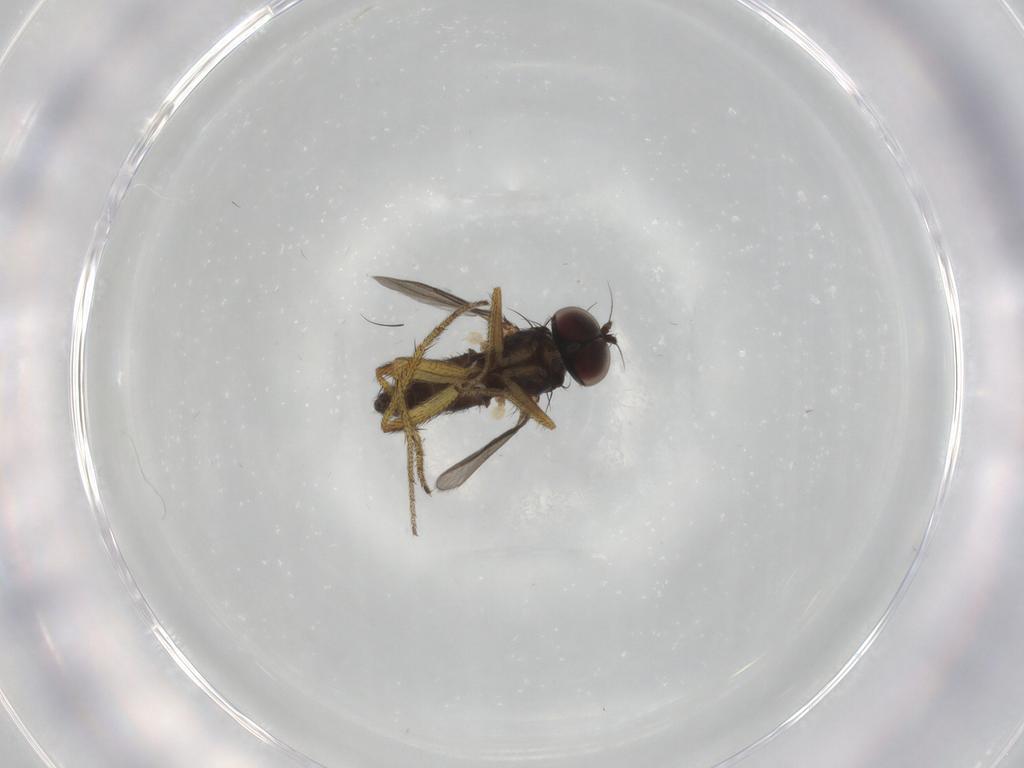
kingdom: Animalia
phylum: Arthropoda
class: Insecta
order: Diptera
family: Dolichopodidae
